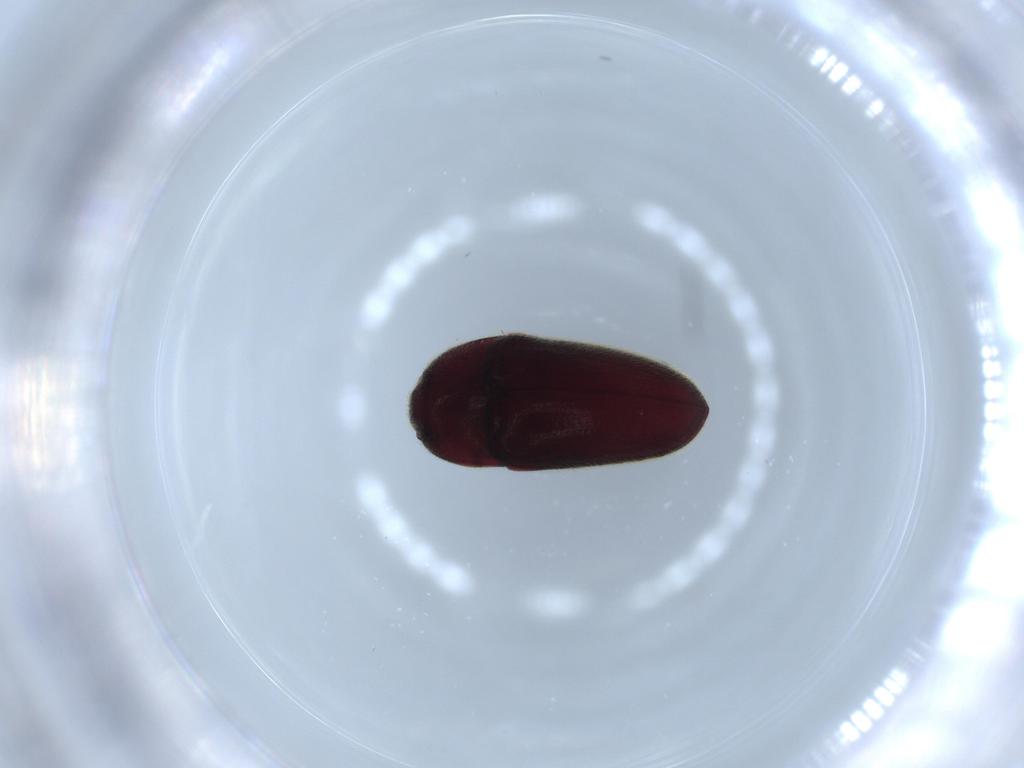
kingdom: Animalia
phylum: Arthropoda
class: Insecta
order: Coleoptera
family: Throscidae
